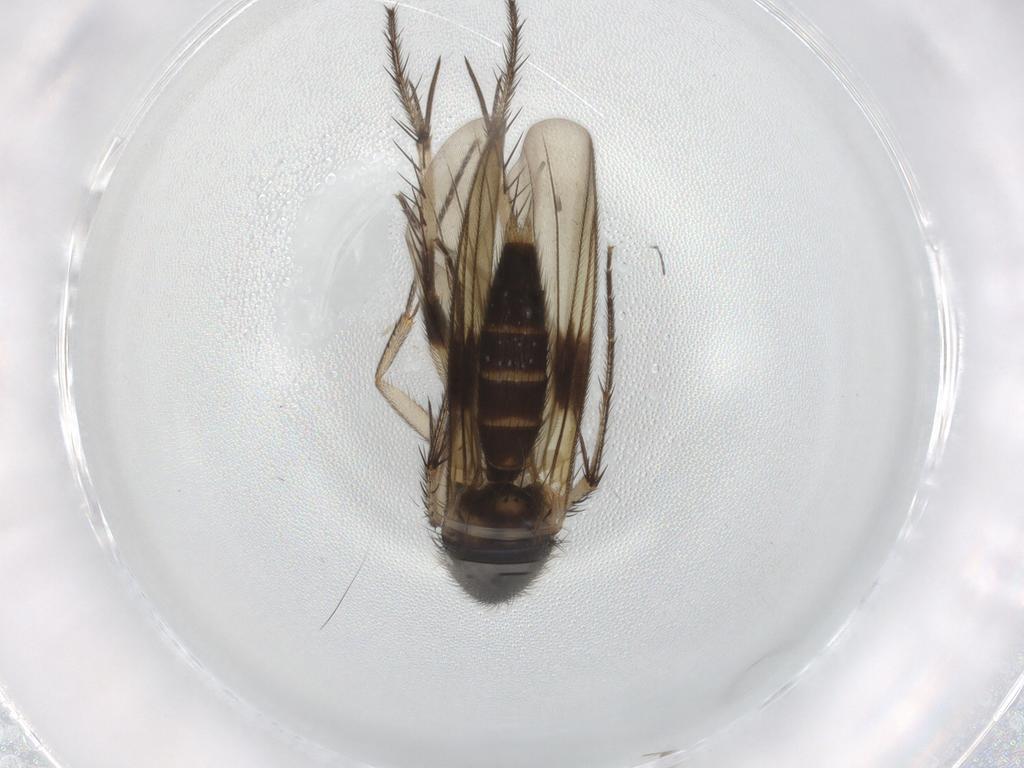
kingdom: Animalia
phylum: Arthropoda
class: Insecta
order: Diptera
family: Mycetophilidae
